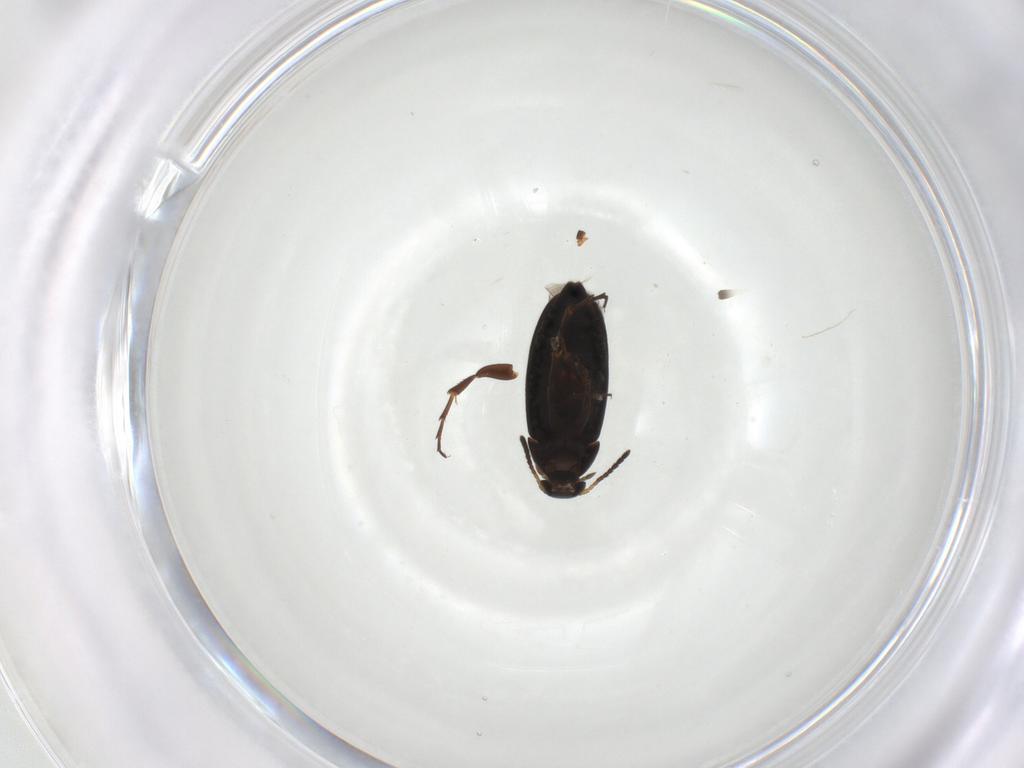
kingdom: Animalia
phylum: Arthropoda
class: Insecta
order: Coleoptera
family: Scraptiidae
